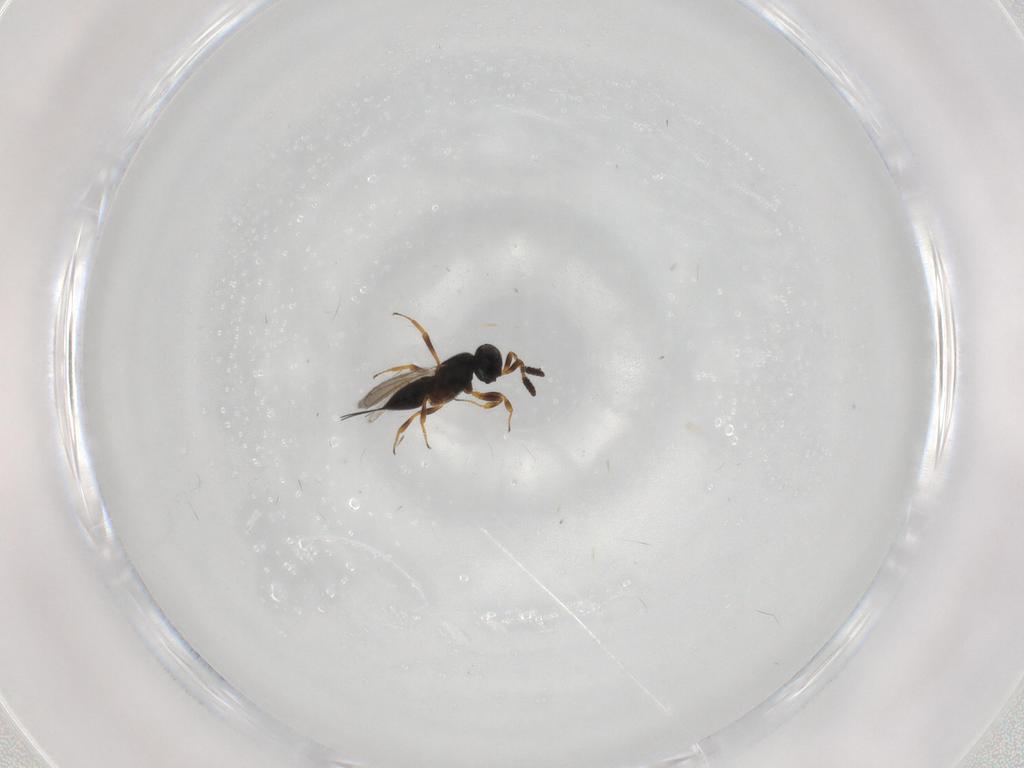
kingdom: Animalia
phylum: Arthropoda
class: Insecta
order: Hymenoptera
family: Scelionidae
